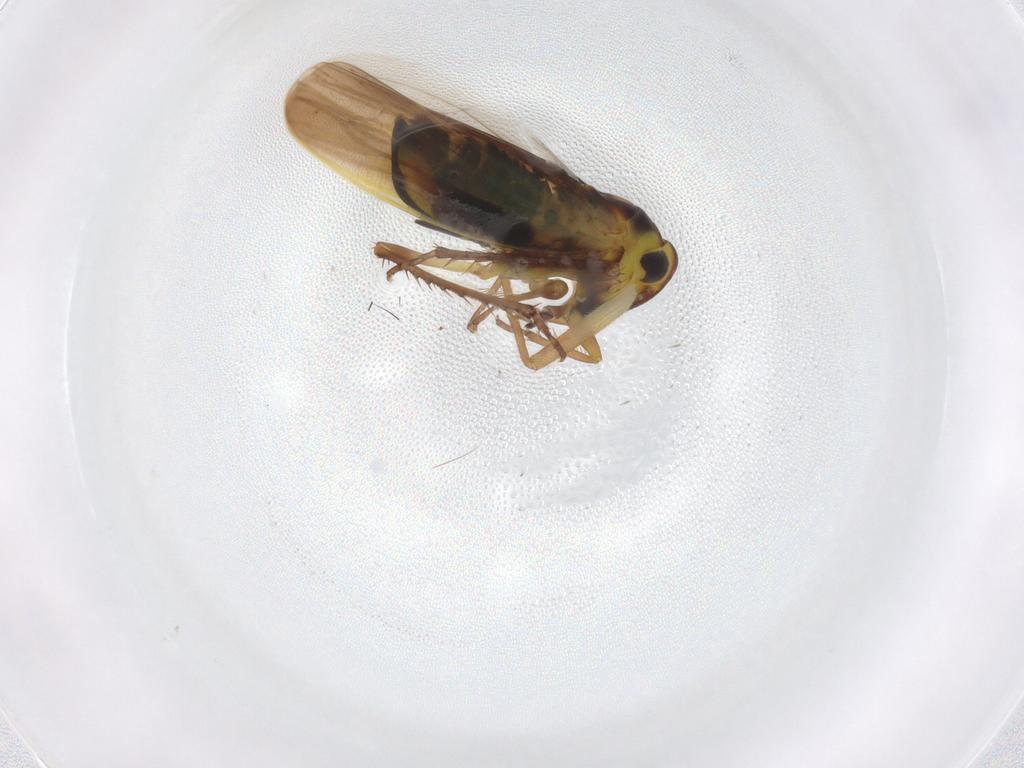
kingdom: Animalia
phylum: Arthropoda
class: Insecta
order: Hemiptera
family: Cicadellidae
